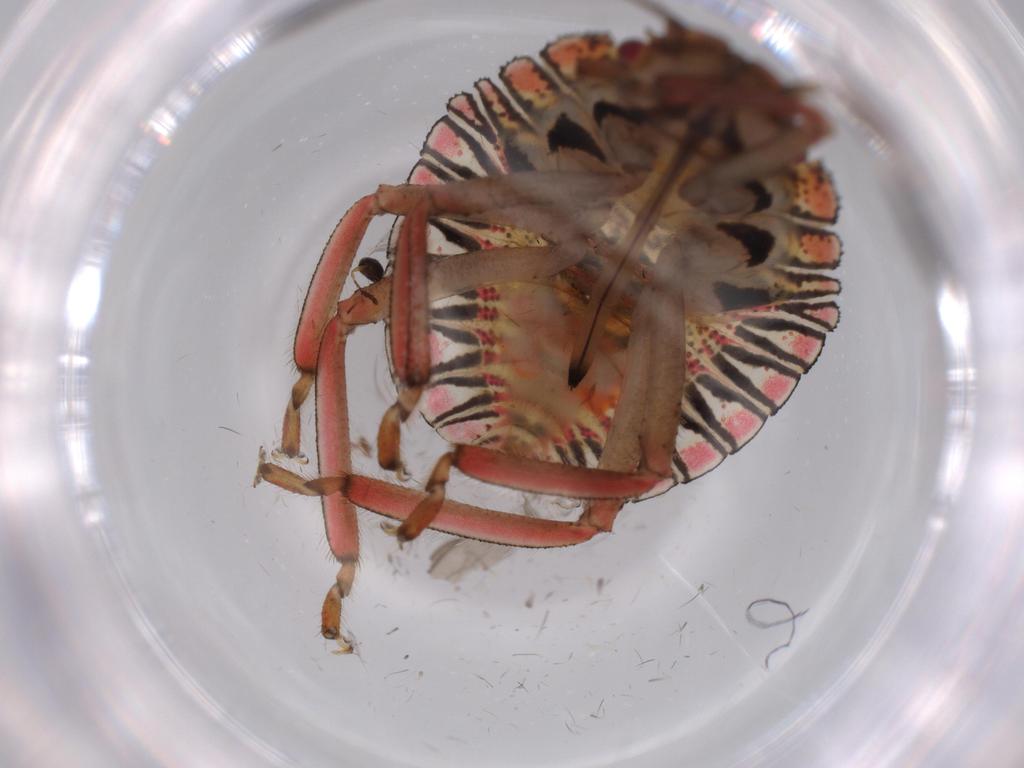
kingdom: Animalia
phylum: Arthropoda
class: Insecta
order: Hemiptera
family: Pentatomidae
